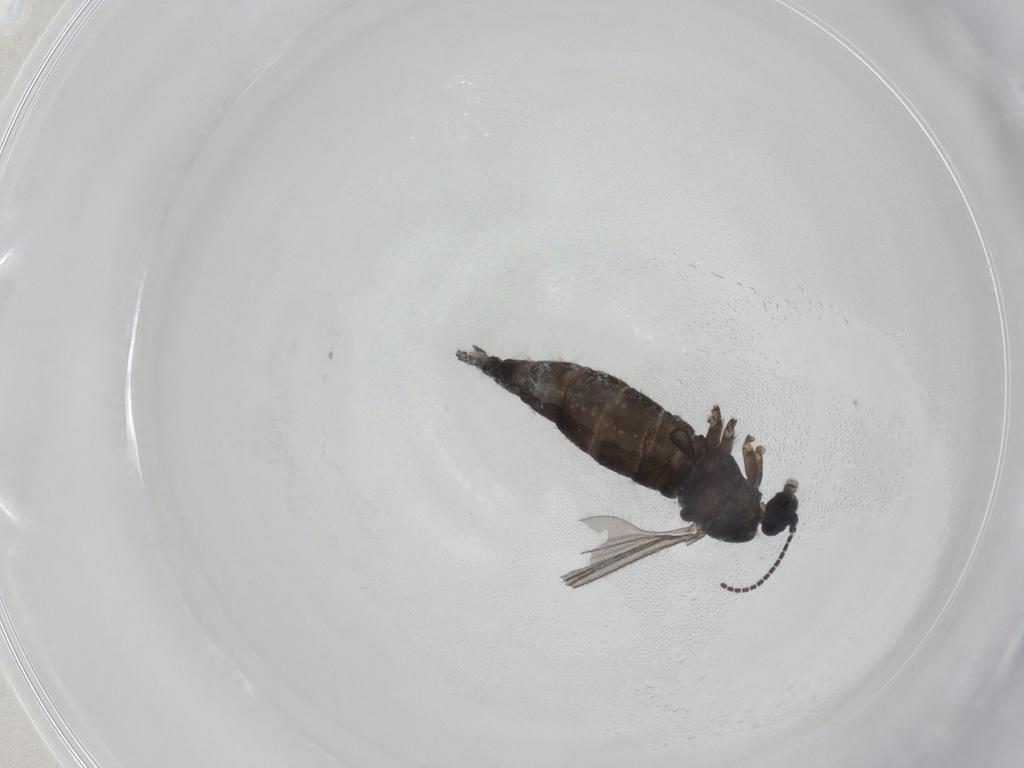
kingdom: Animalia
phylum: Arthropoda
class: Insecta
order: Diptera
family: Sciaridae
